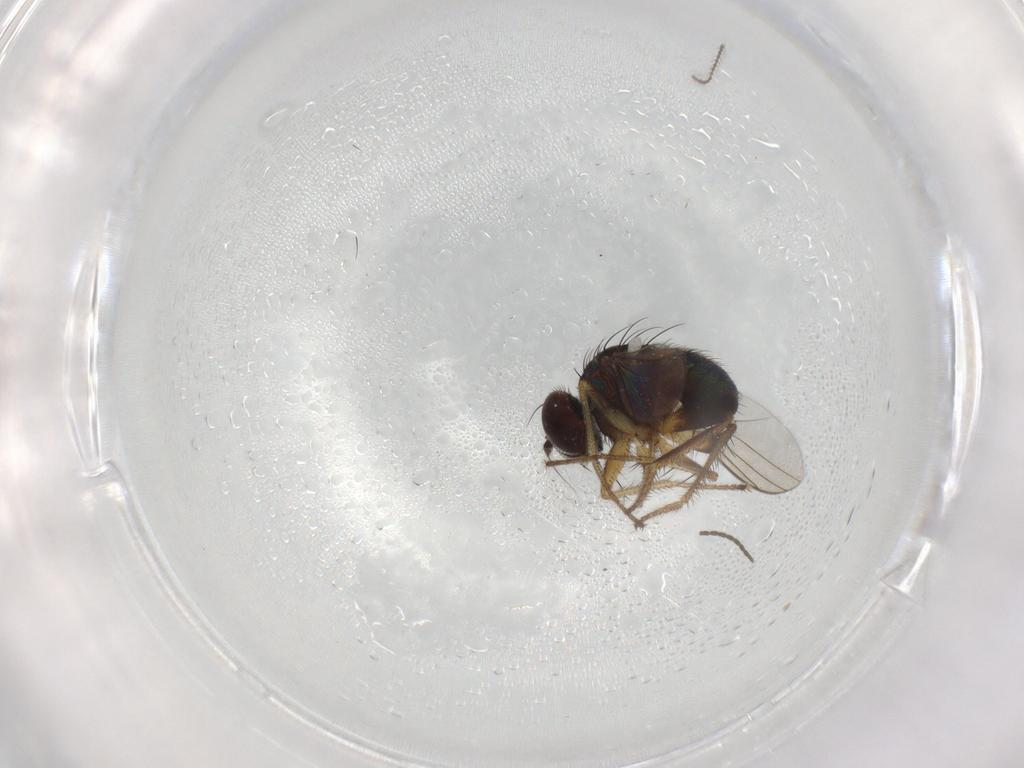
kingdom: Animalia
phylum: Arthropoda
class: Insecta
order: Diptera
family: Dolichopodidae
